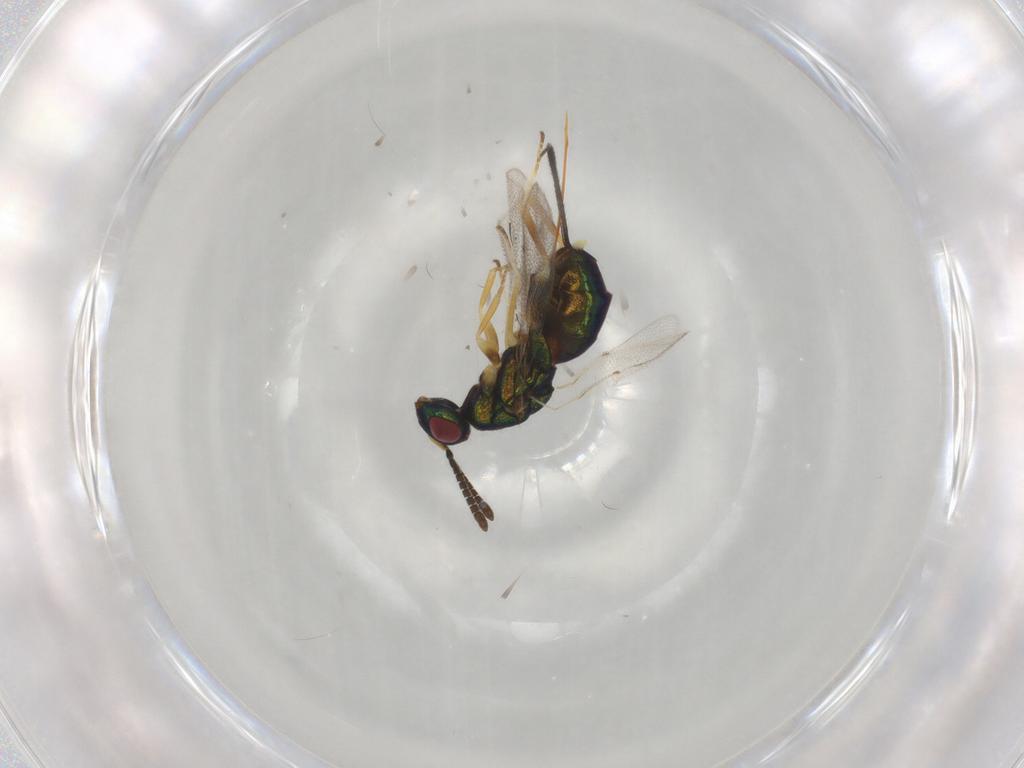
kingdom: Animalia
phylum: Arthropoda
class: Insecta
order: Hymenoptera
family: Torymidae
